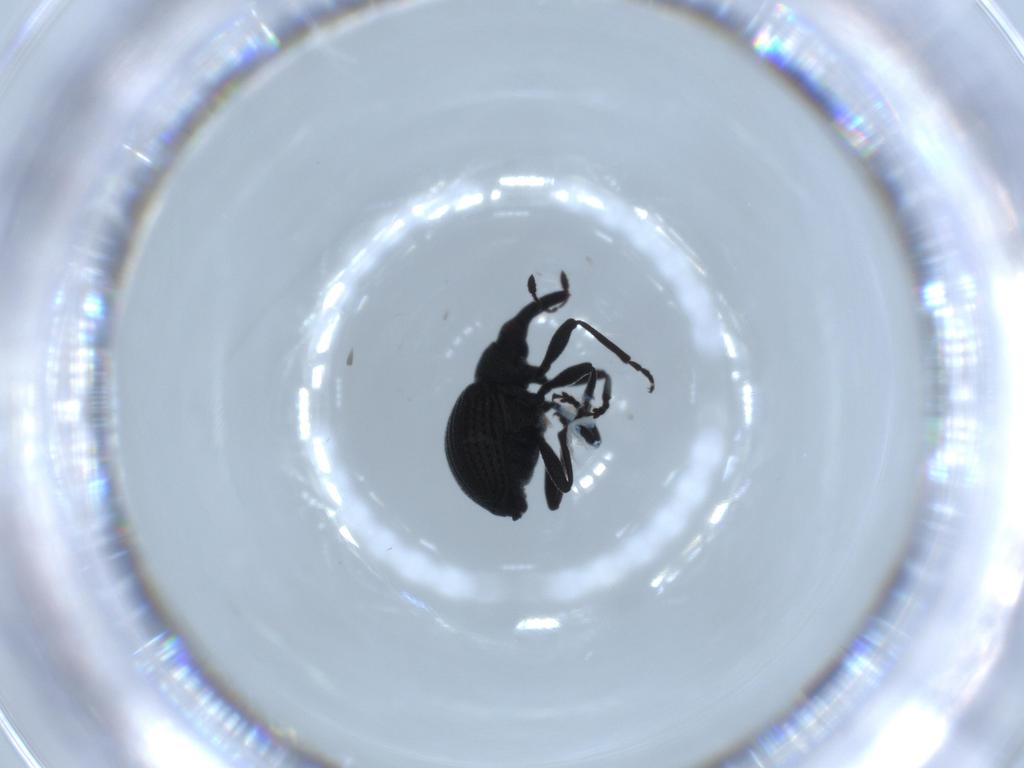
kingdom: Animalia
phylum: Arthropoda
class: Insecta
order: Coleoptera
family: Brentidae
